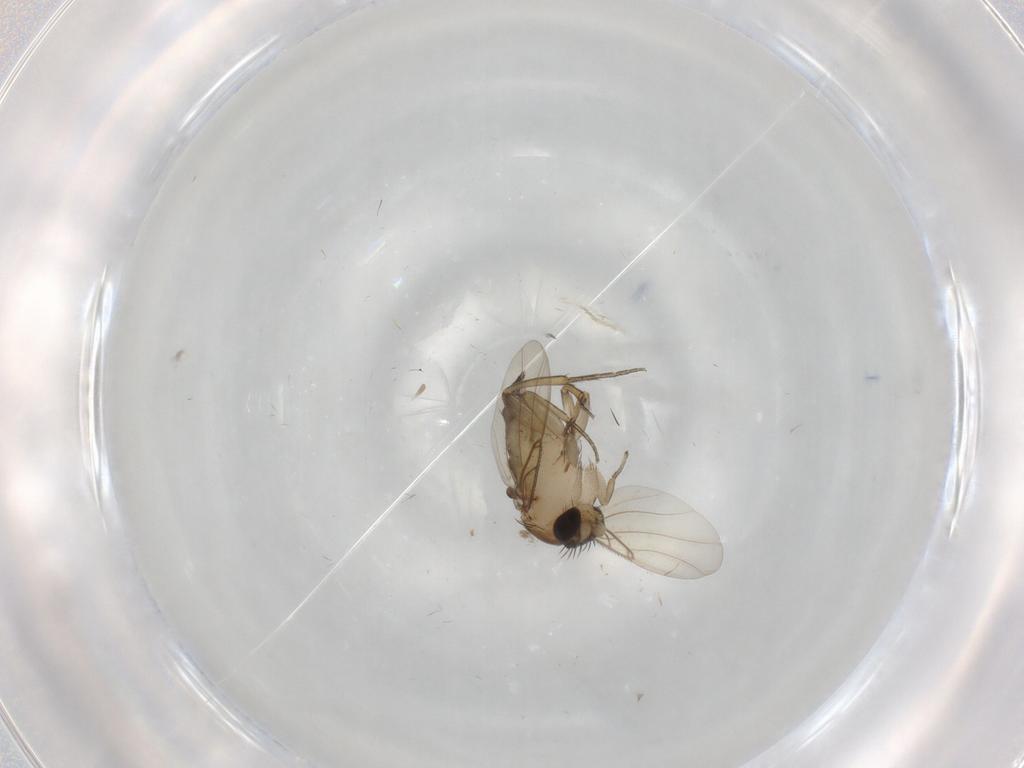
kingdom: Animalia
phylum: Arthropoda
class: Insecta
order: Diptera
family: Phoridae
